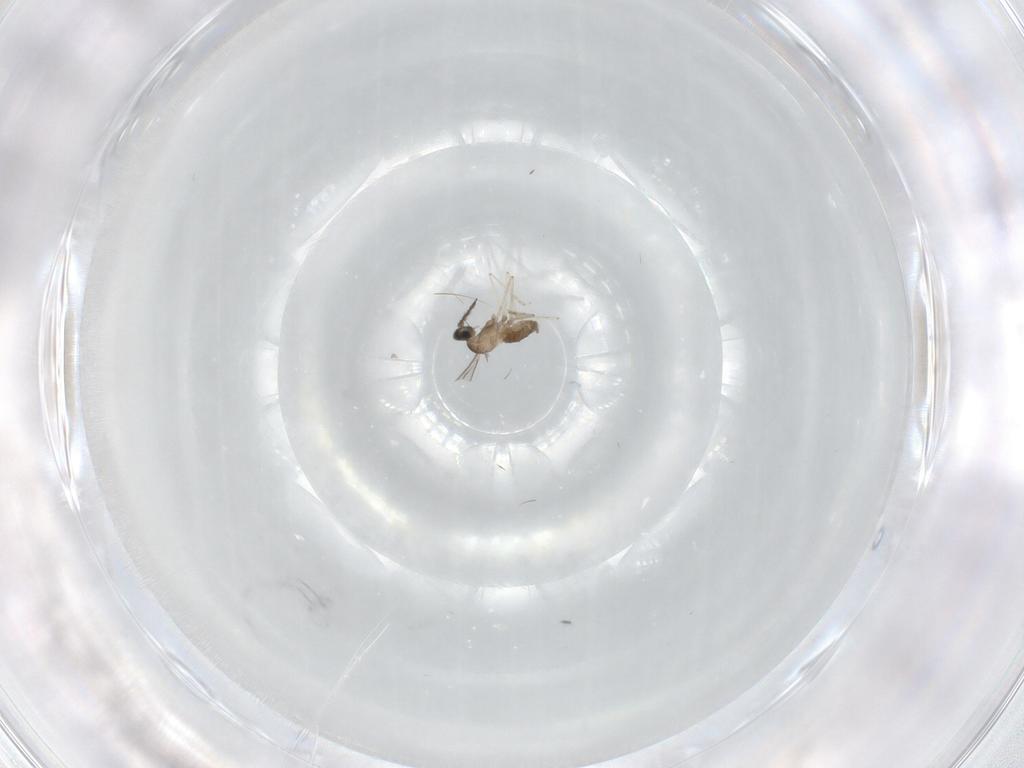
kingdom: Animalia
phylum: Arthropoda
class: Insecta
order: Diptera
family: Cecidomyiidae
